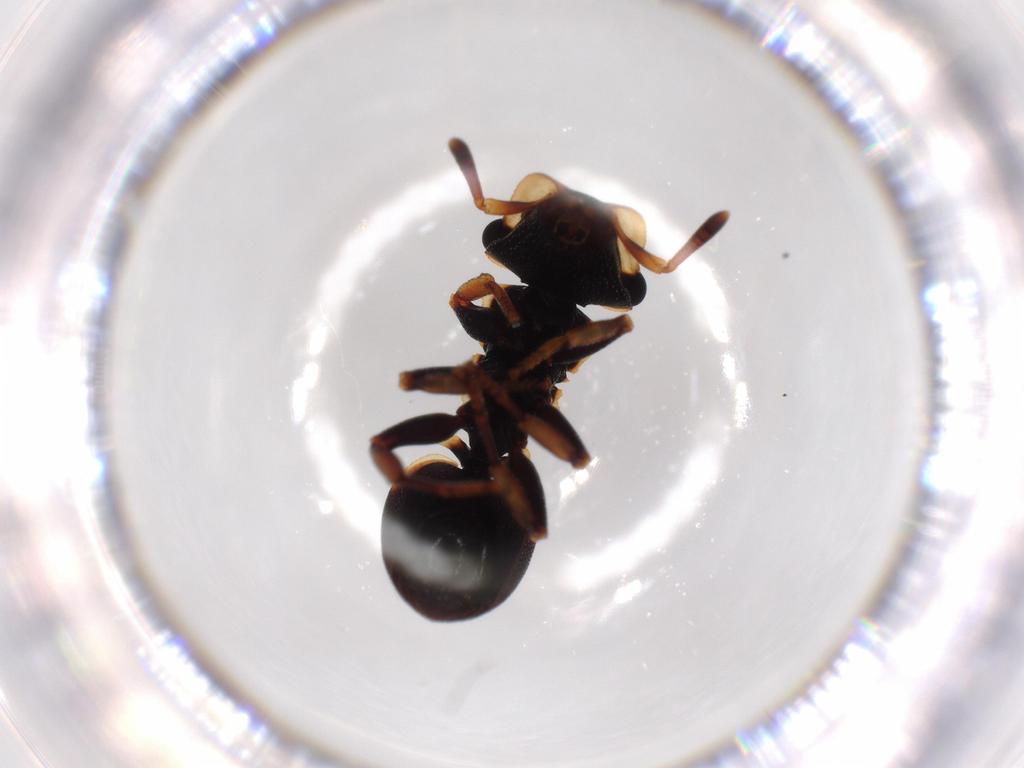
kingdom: Animalia
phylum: Arthropoda
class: Insecta
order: Hymenoptera
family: Formicidae
